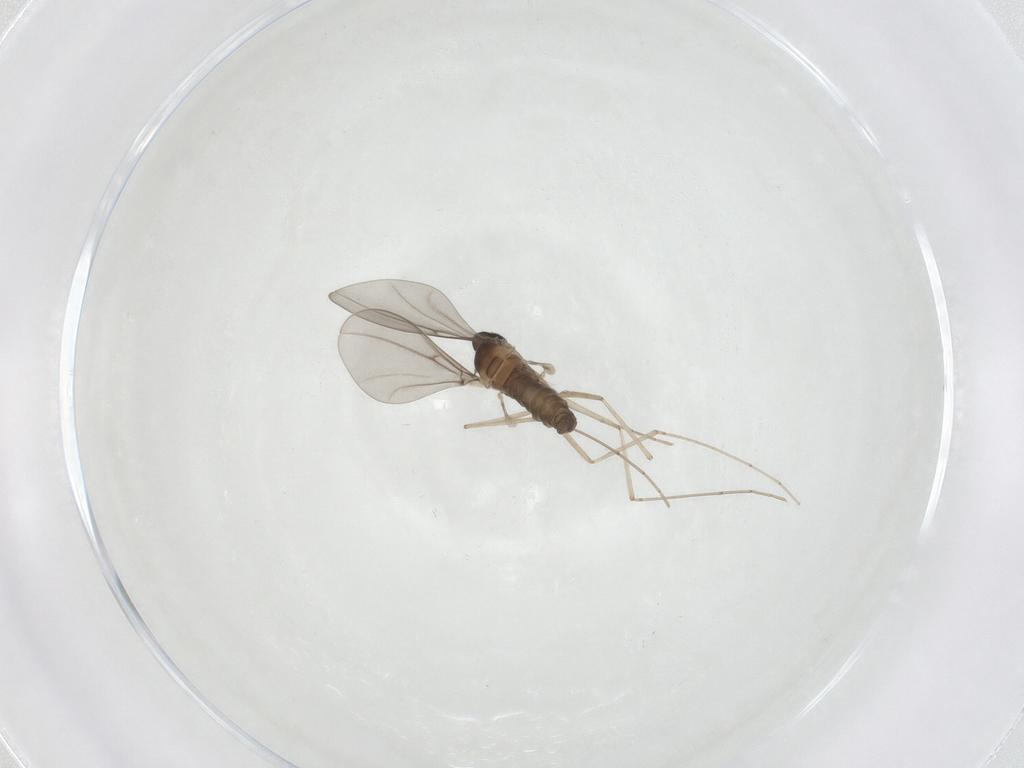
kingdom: Animalia
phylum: Arthropoda
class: Insecta
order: Diptera
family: Cecidomyiidae
